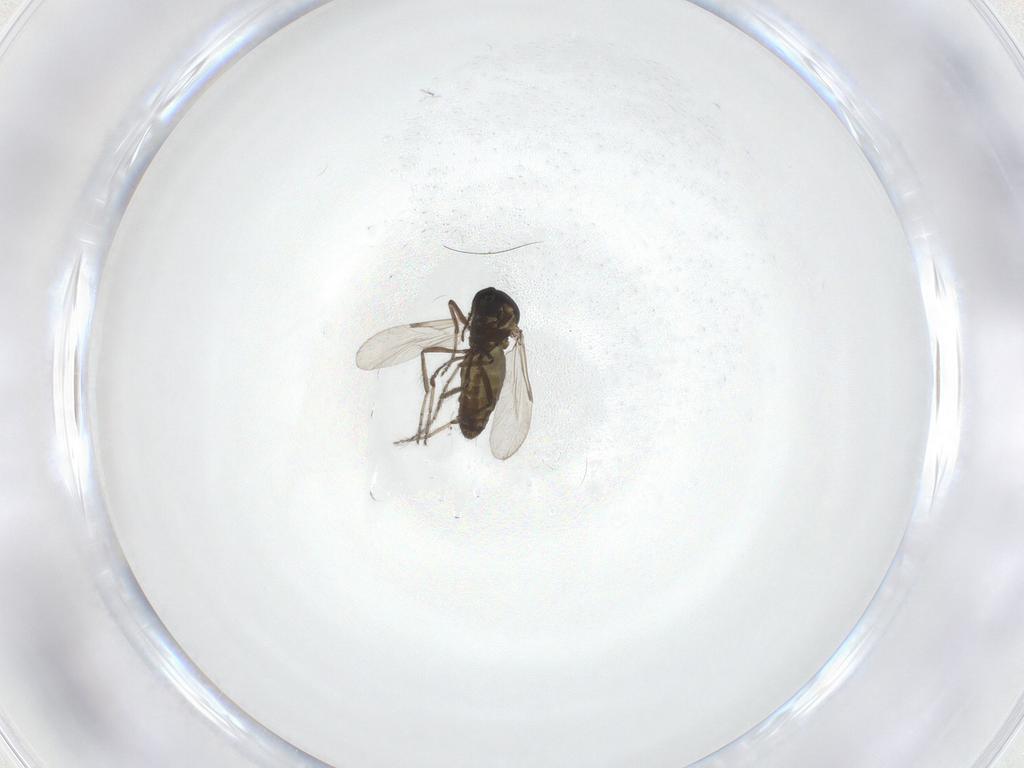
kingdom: Animalia
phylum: Arthropoda
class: Insecta
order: Diptera
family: Ceratopogonidae
